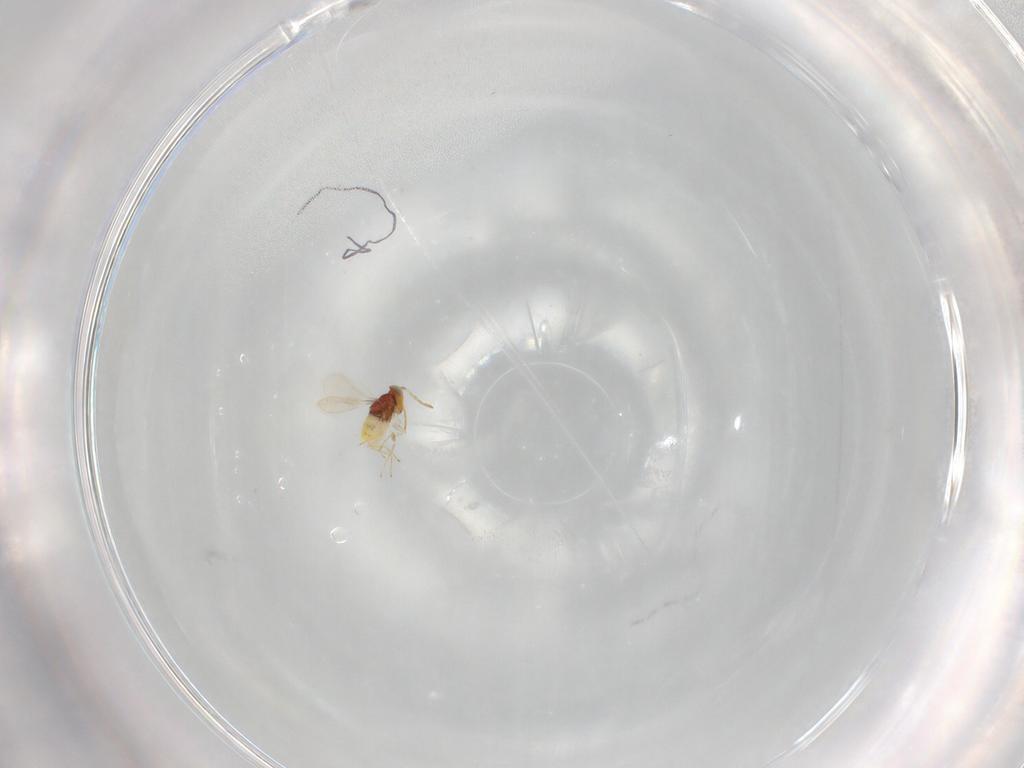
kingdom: Animalia
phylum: Arthropoda
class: Insecta
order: Hymenoptera
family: Aphelinidae
